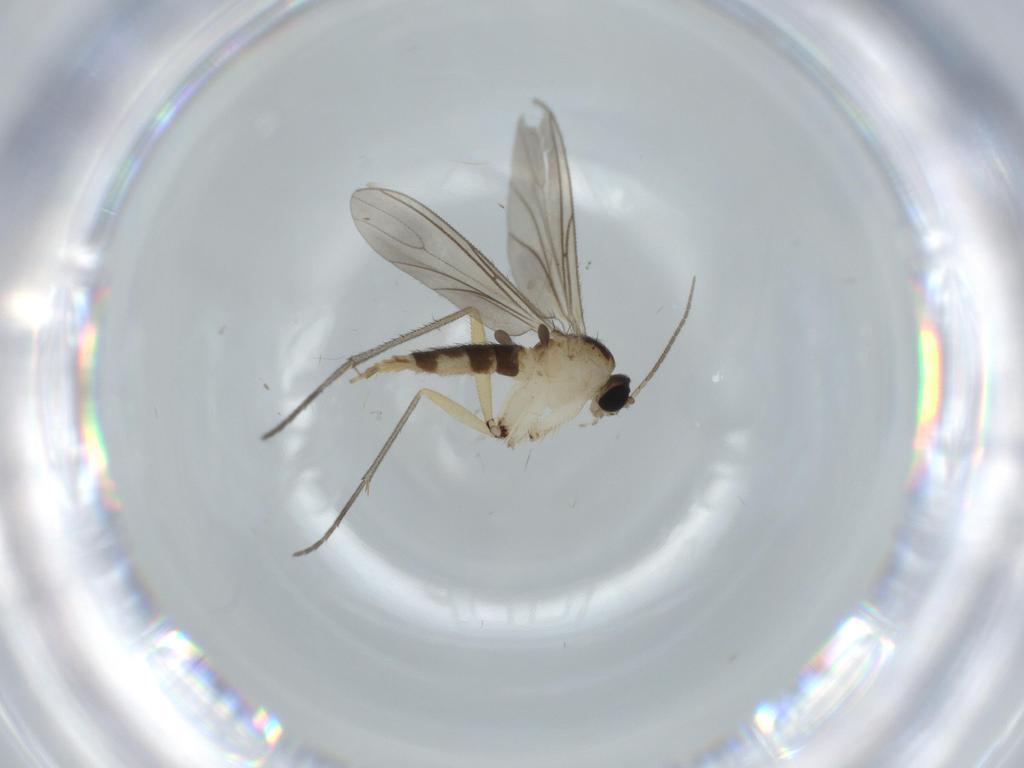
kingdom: Animalia
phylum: Arthropoda
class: Insecta
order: Diptera
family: Cecidomyiidae
